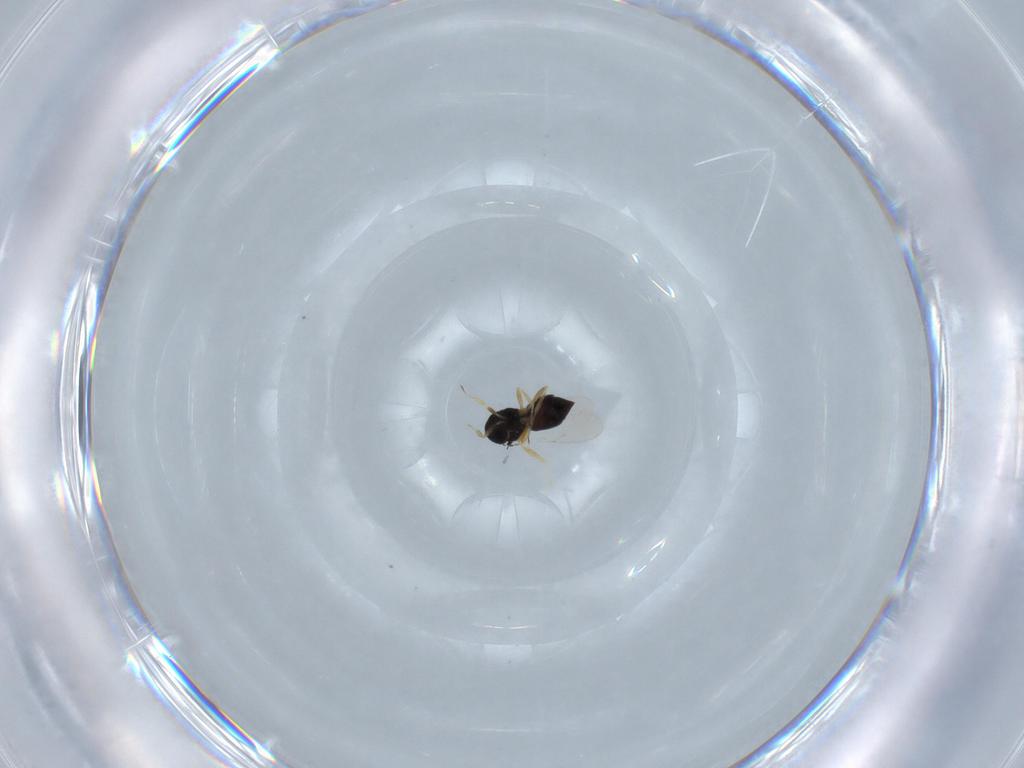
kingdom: Animalia
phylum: Arthropoda
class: Insecta
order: Hymenoptera
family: Scelionidae
